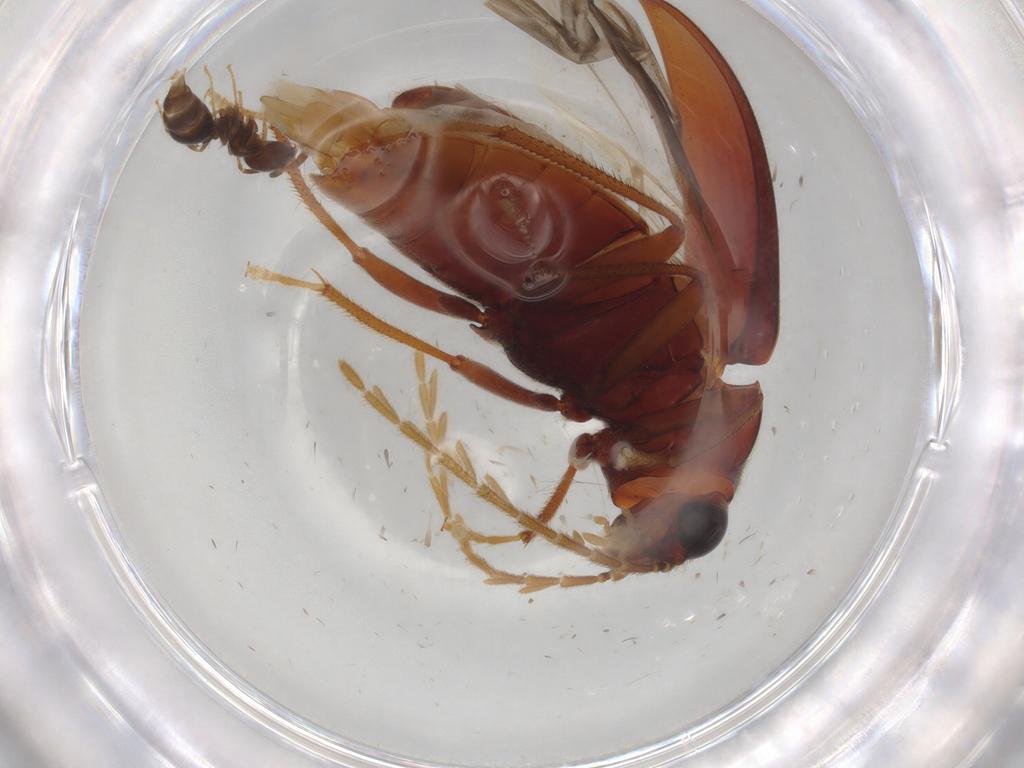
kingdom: Animalia
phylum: Arthropoda
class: Insecta
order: Coleoptera
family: Ptilodactylidae
